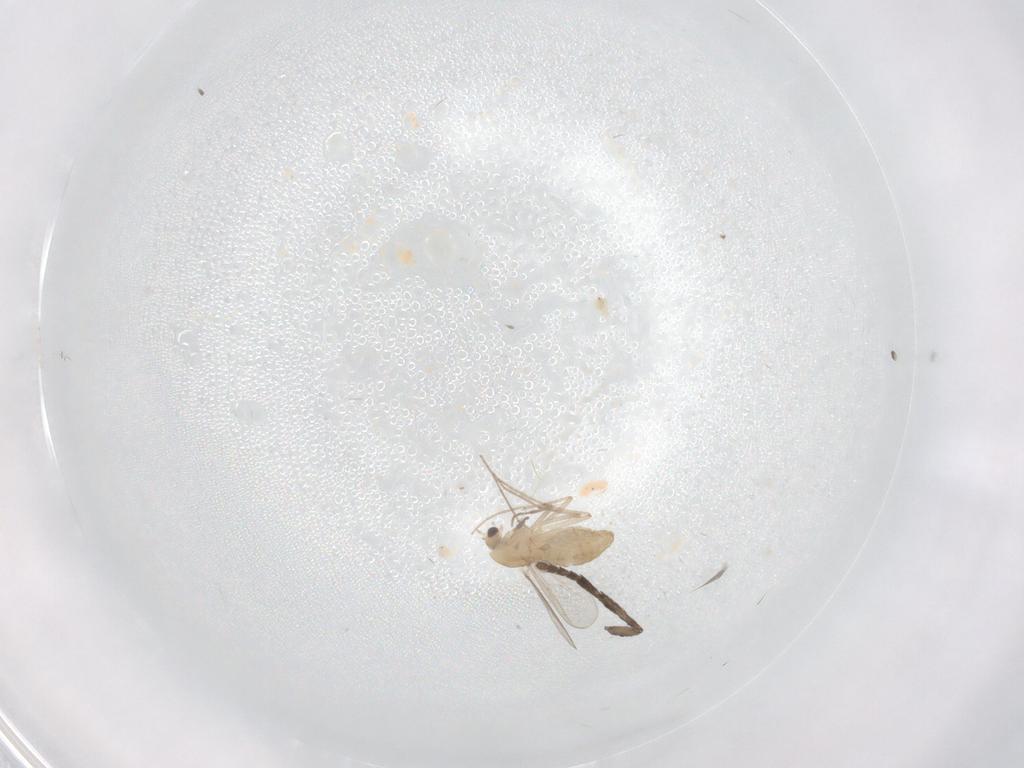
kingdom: Animalia
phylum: Arthropoda
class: Insecta
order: Diptera
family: Chironomidae
